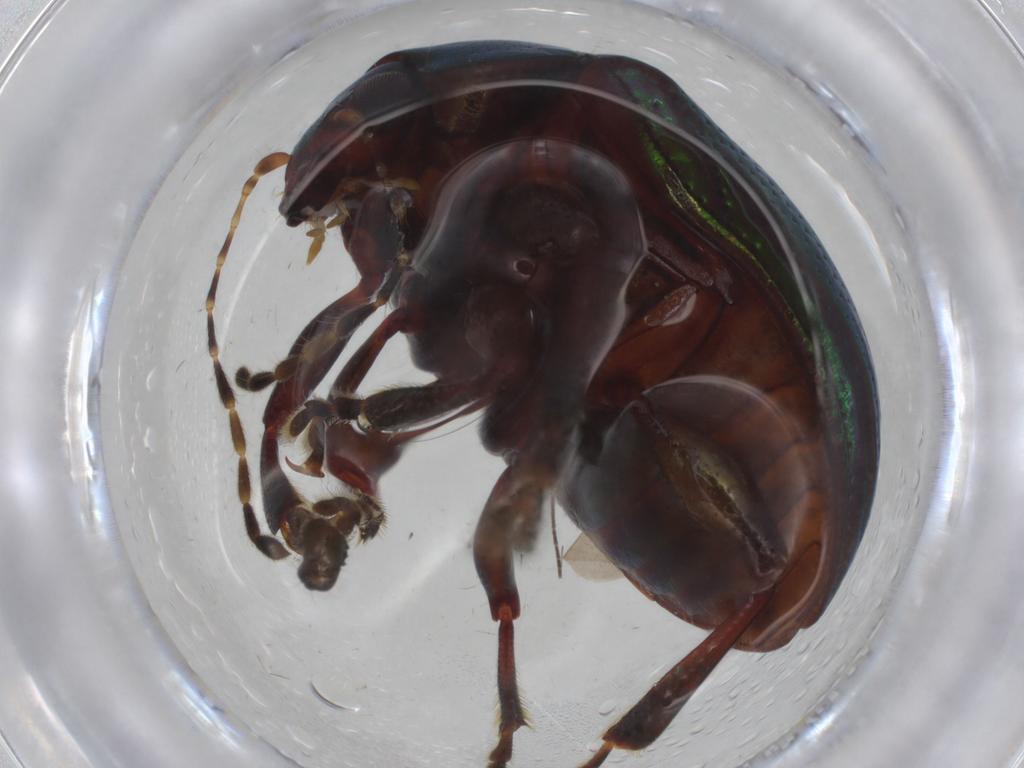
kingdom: Animalia
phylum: Arthropoda
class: Insecta
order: Coleoptera
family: Chrysomelidae
